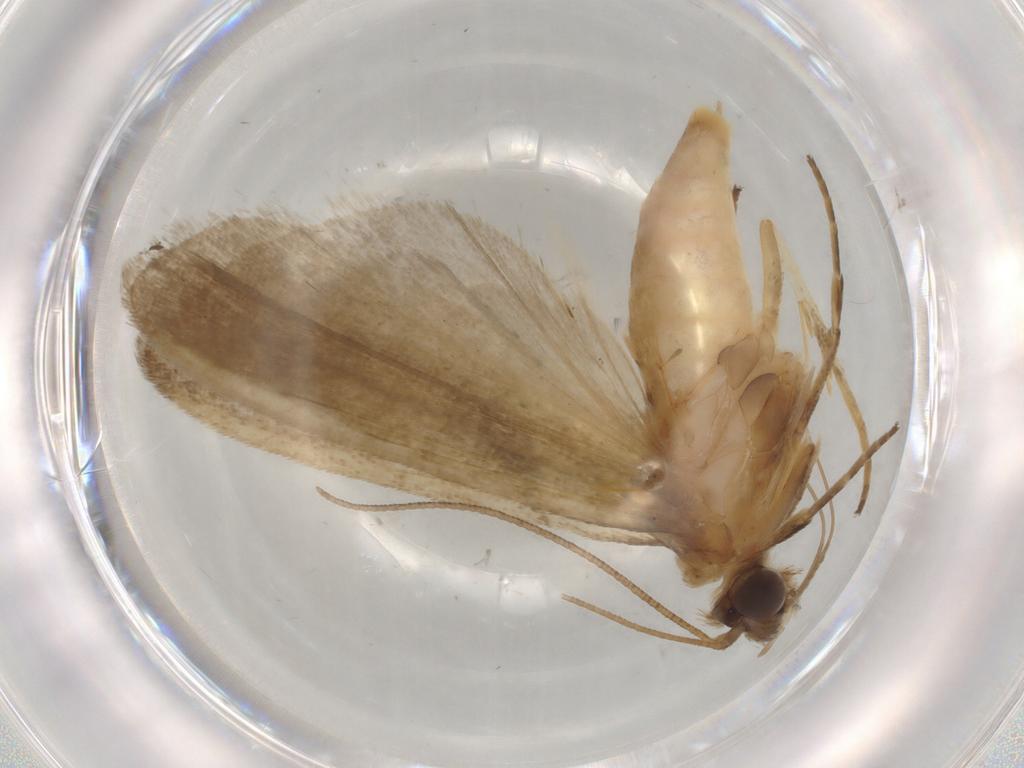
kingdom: Animalia
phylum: Arthropoda
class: Insecta
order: Lepidoptera
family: Noctuidae
